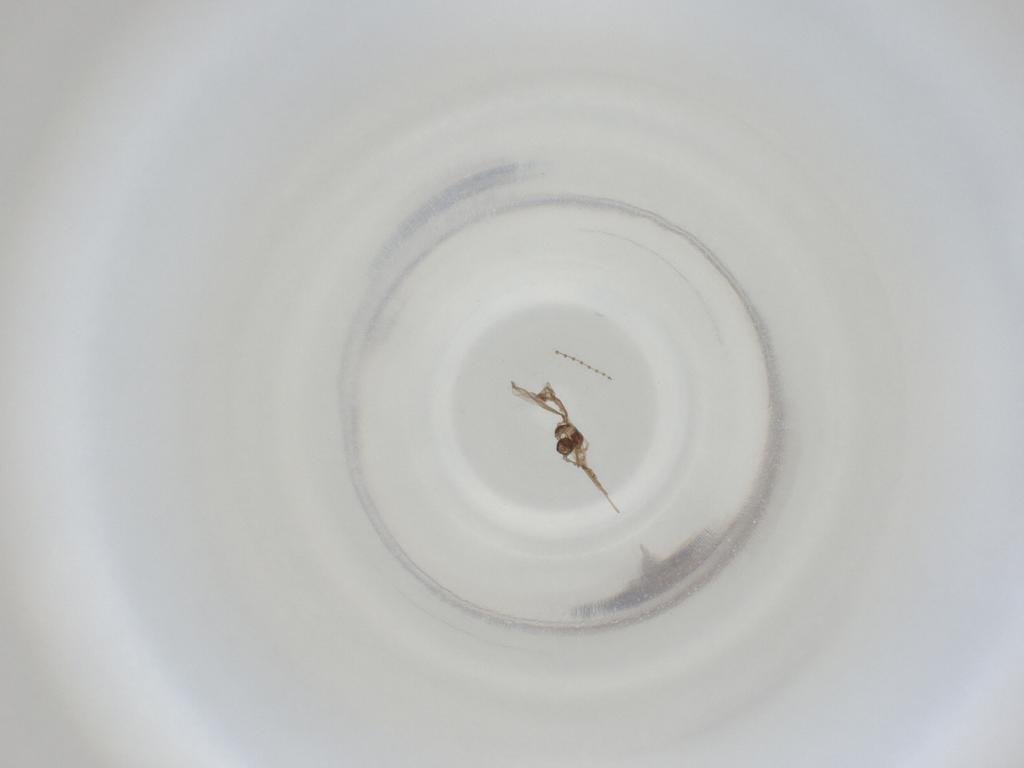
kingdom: Animalia
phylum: Arthropoda
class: Insecta
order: Diptera
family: Cecidomyiidae
